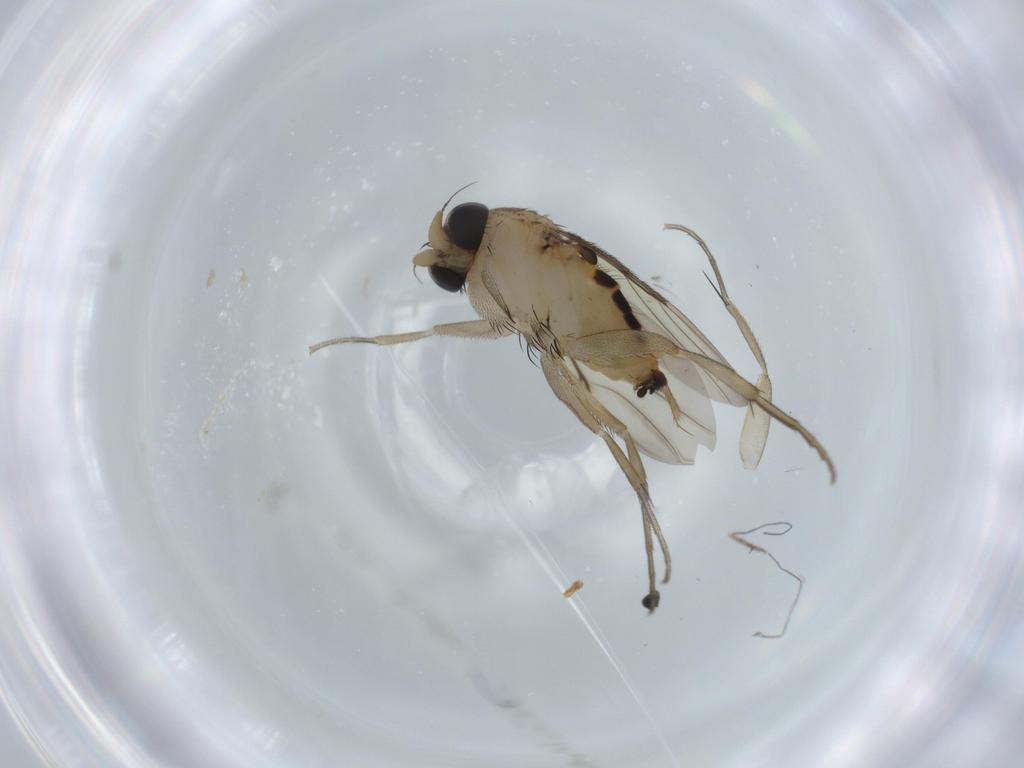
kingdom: Animalia
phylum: Arthropoda
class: Insecta
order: Diptera
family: Phoridae
